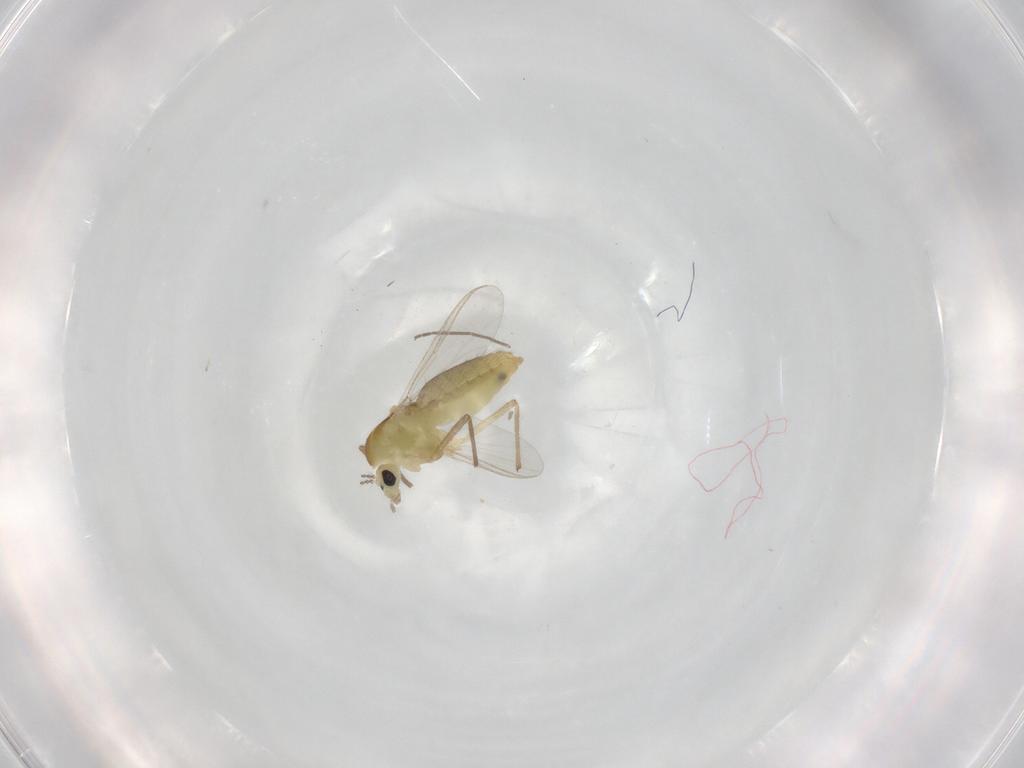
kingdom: Animalia
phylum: Arthropoda
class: Insecta
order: Diptera
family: Chironomidae
